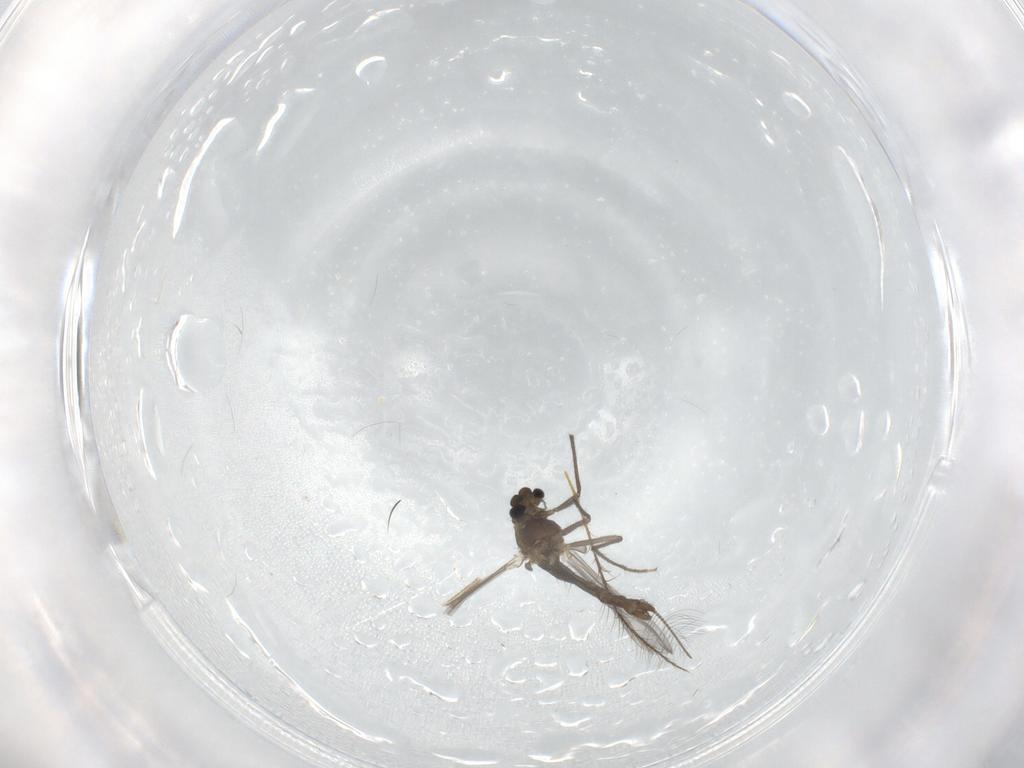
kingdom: Animalia
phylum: Arthropoda
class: Insecta
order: Diptera
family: Chironomidae
